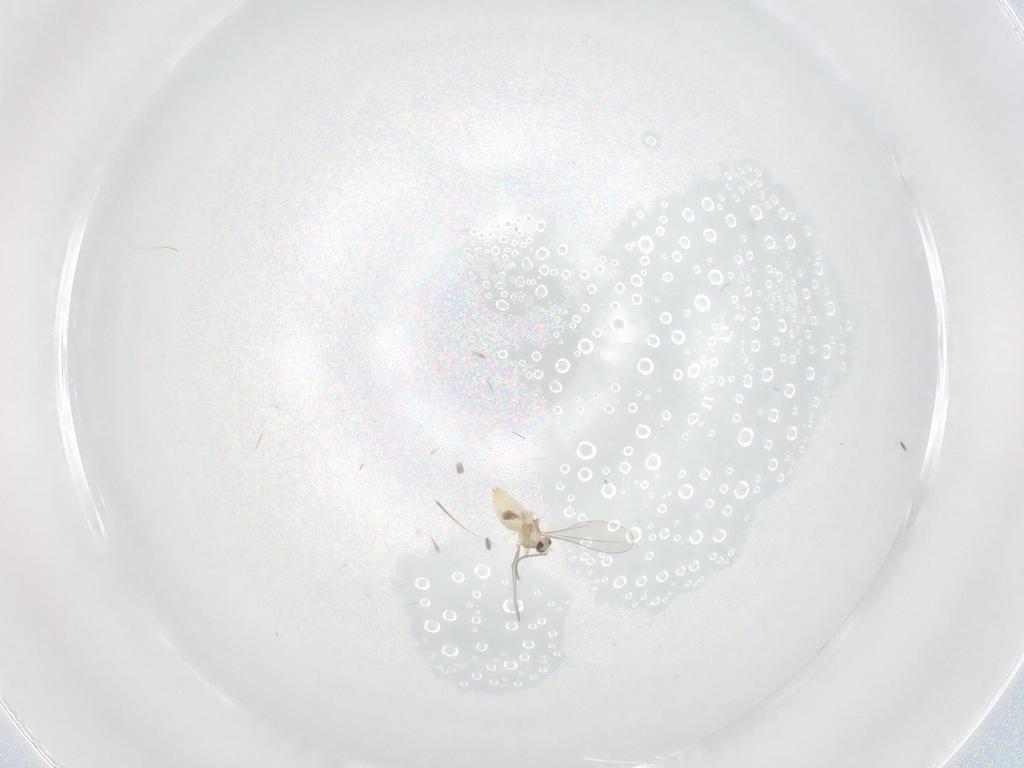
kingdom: Animalia
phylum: Arthropoda
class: Insecta
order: Diptera
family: Cecidomyiidae
